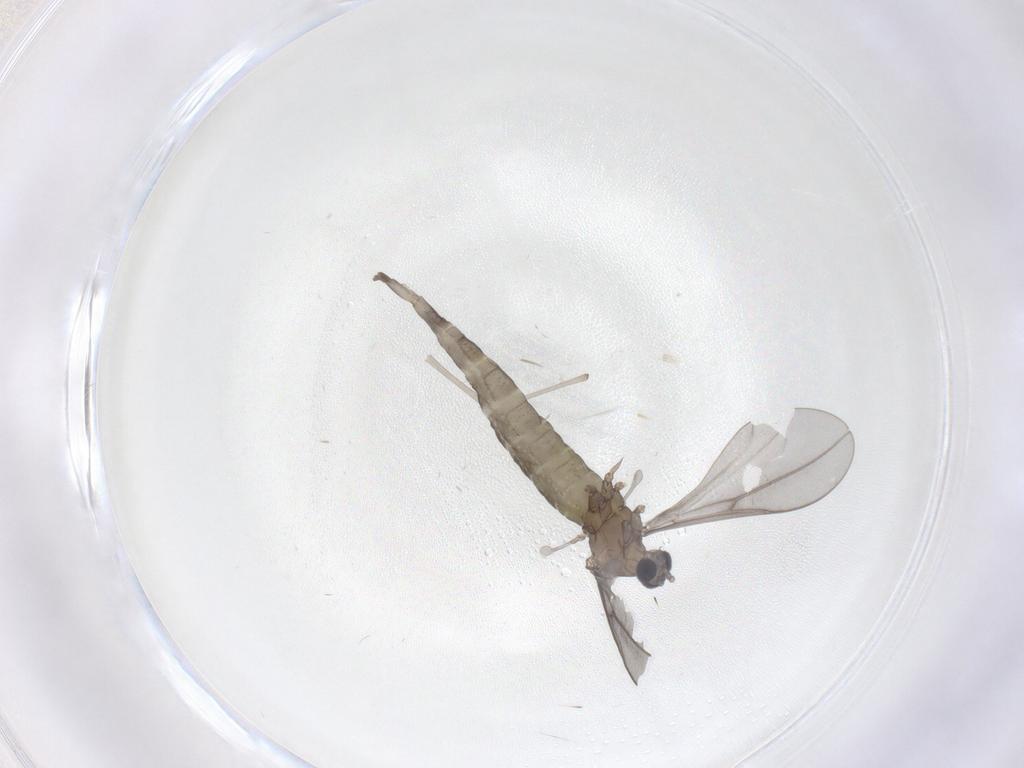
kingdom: Animalia
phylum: Arthropoda
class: Insecta
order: Diptera
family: Cecidomyiidae
